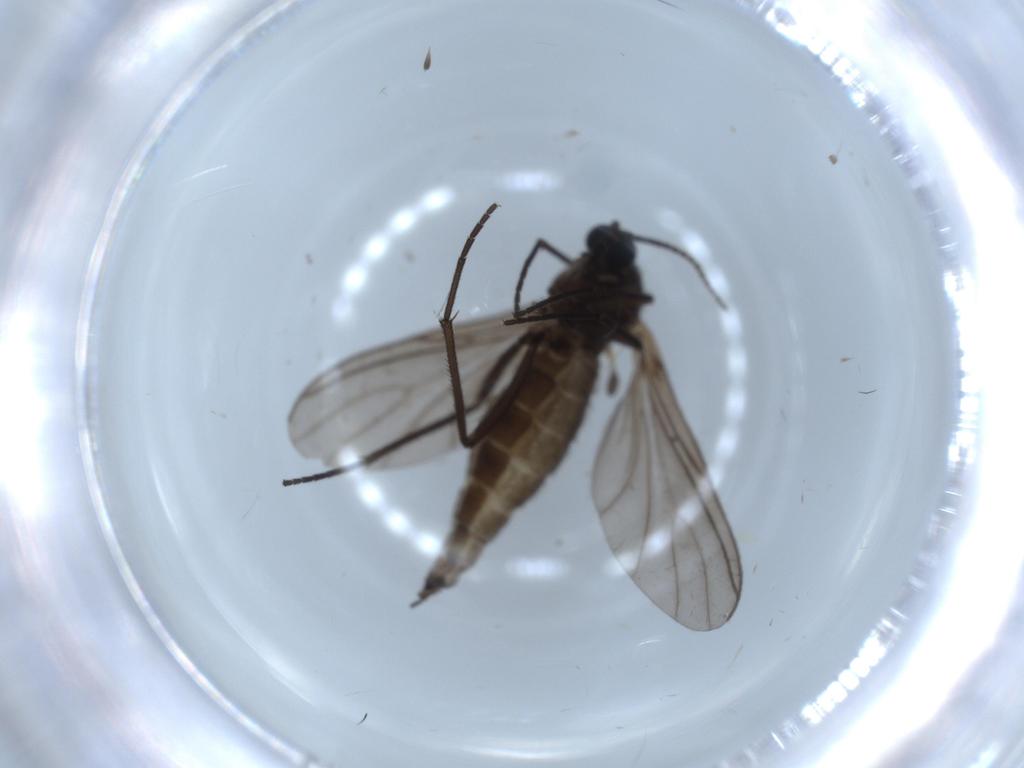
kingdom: Animalia
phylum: Arthropoda
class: Insecta
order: Diptera
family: Sciaridae
